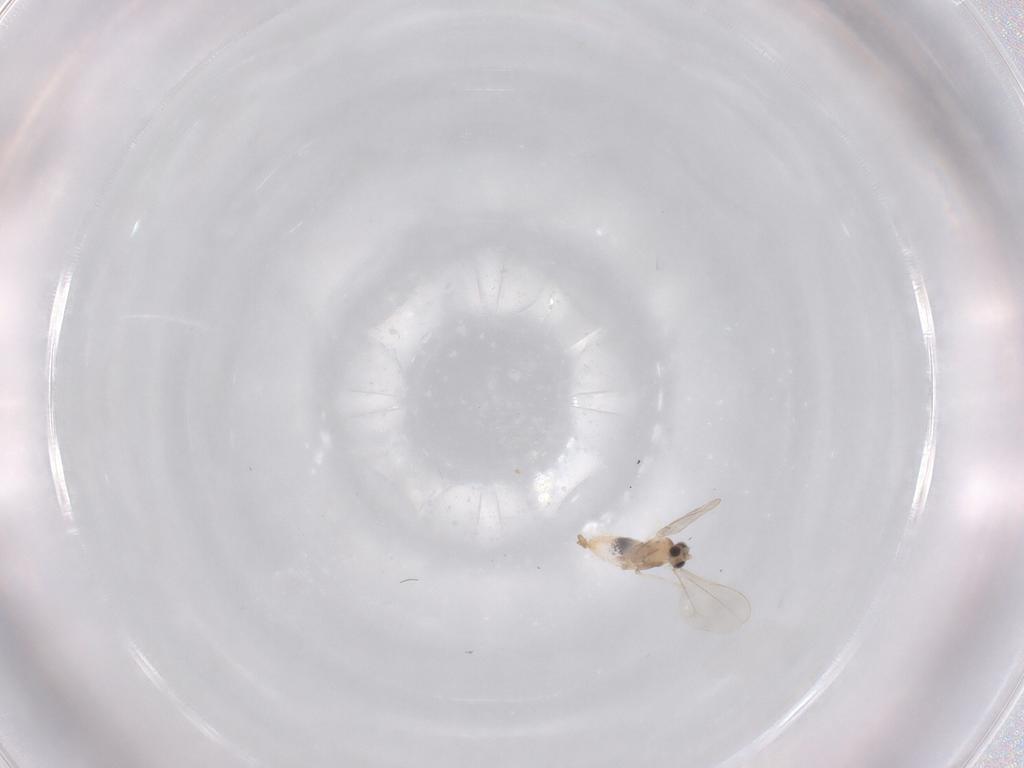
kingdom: Animalia
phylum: Arthropoda
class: Insecta
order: Diptera
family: Cecidomyiidae
